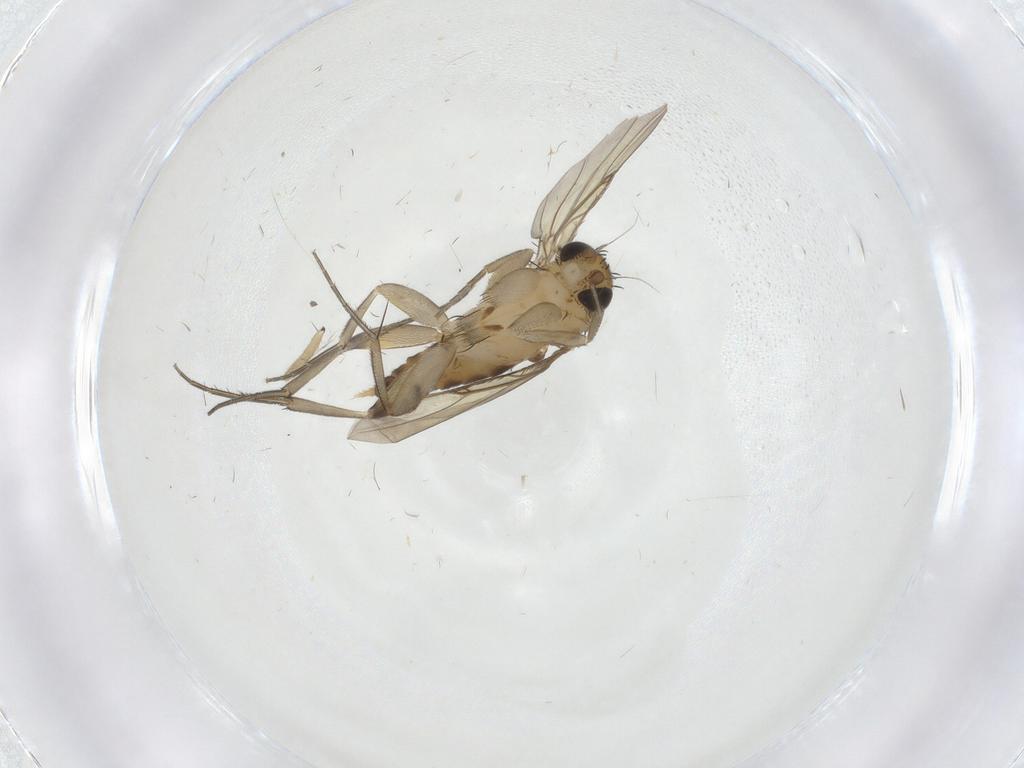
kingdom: Animalia
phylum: Arthropoda
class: Insecta
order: Diptera
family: Sciaridae
